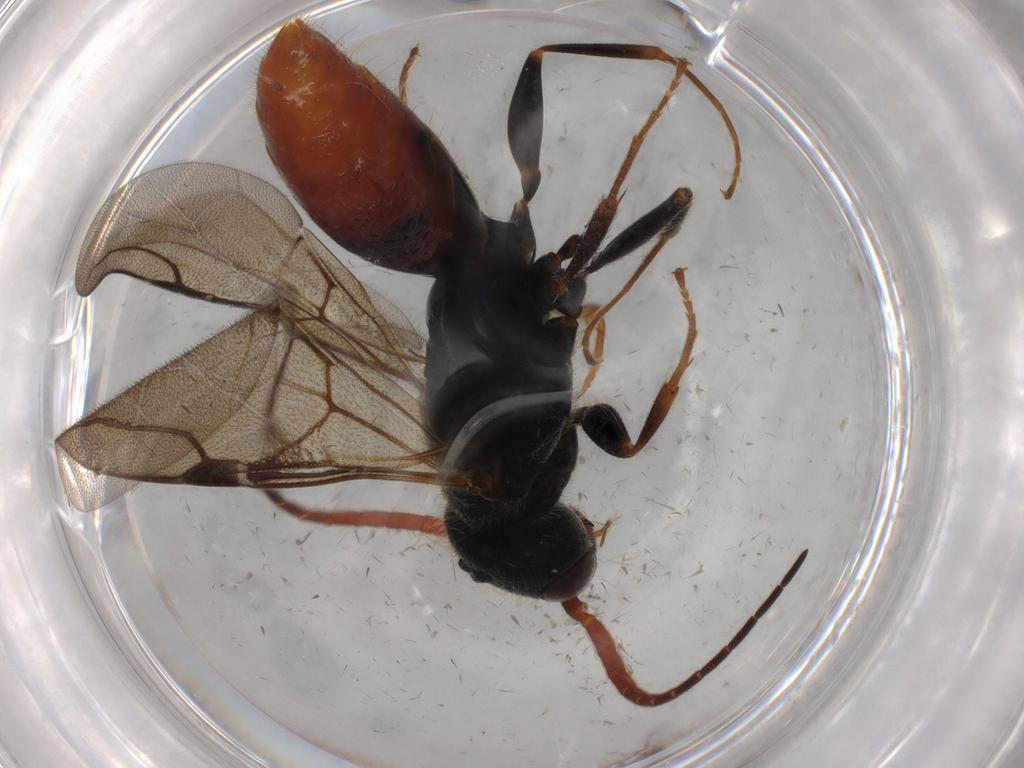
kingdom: Animalia
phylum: Arthropoda
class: Insecta
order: Hymenoptera
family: Bethylidae
